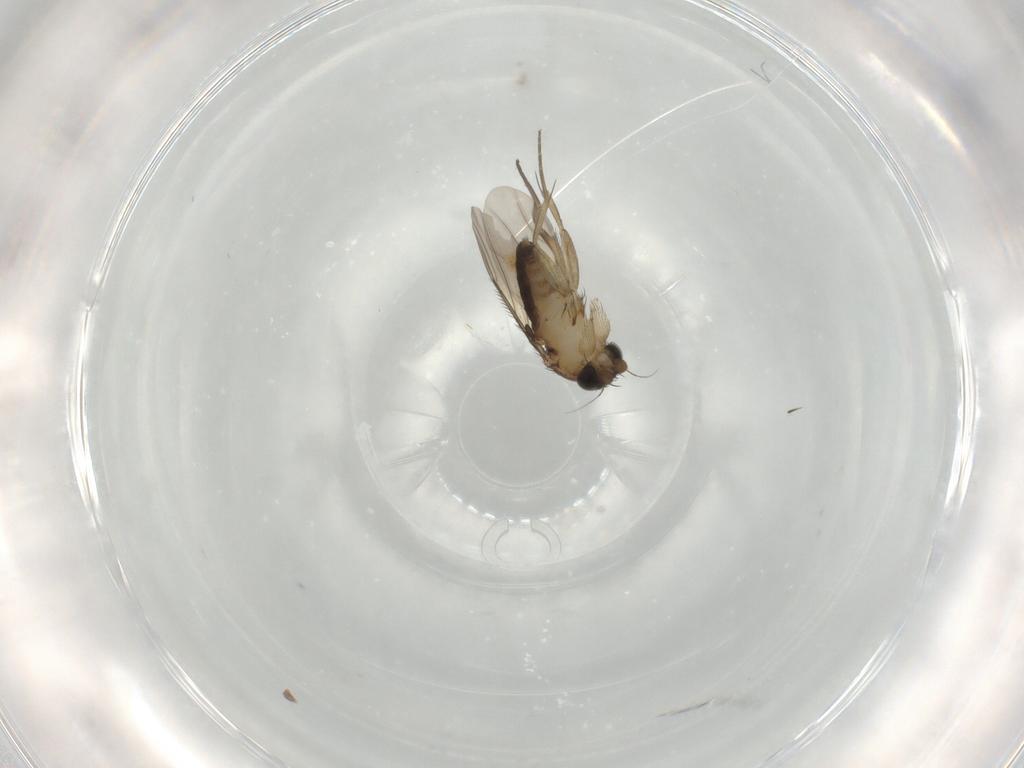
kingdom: Animalia
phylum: Arthropoda
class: Insecta
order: Diptera
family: Phoridae
